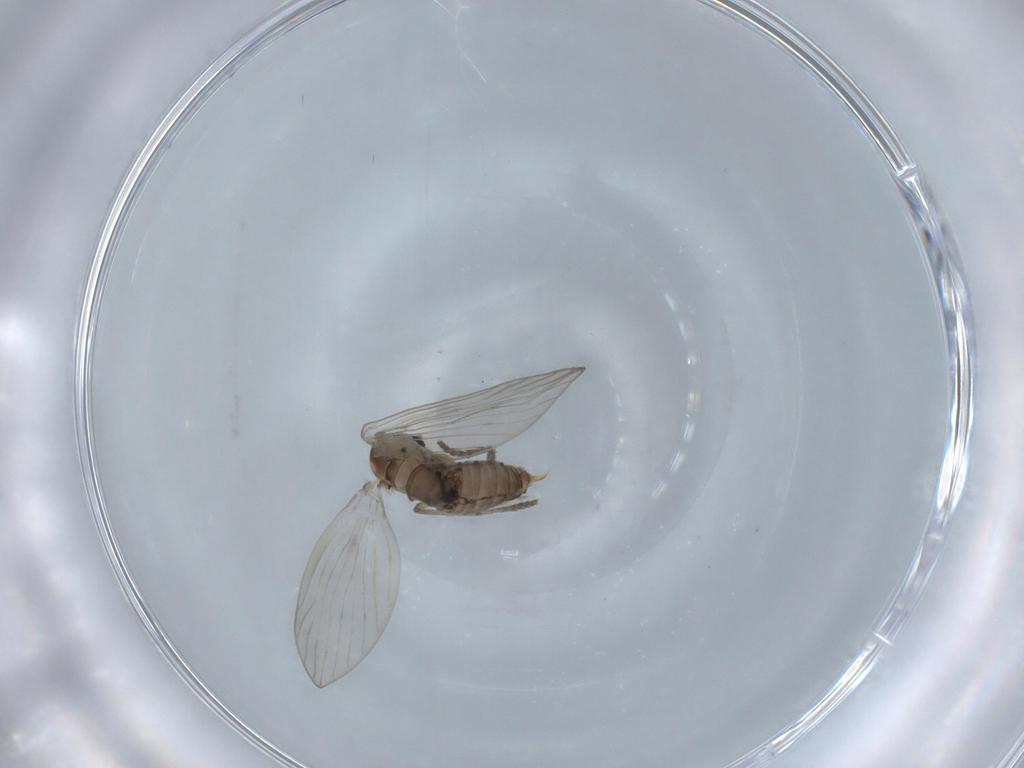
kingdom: Animalia
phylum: Arthropoda
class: Insecta
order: Diptera
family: Psychodidae
